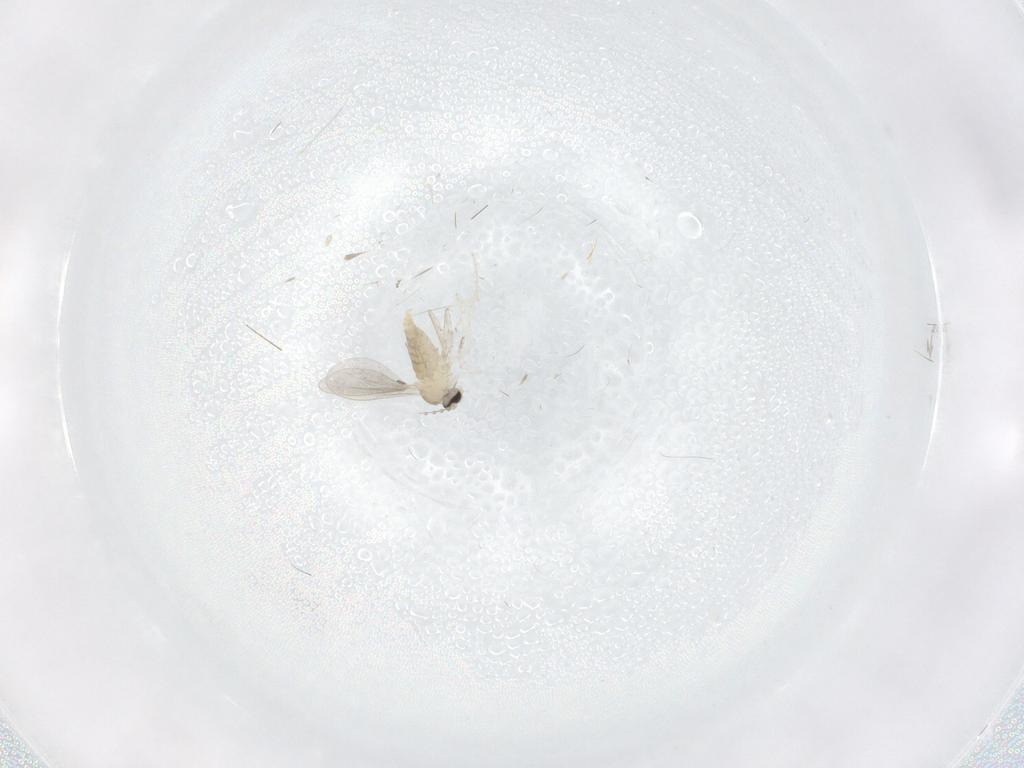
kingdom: Animalia
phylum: Arthropoda
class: Insecta
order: Diptera
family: Cecidomyiidae
